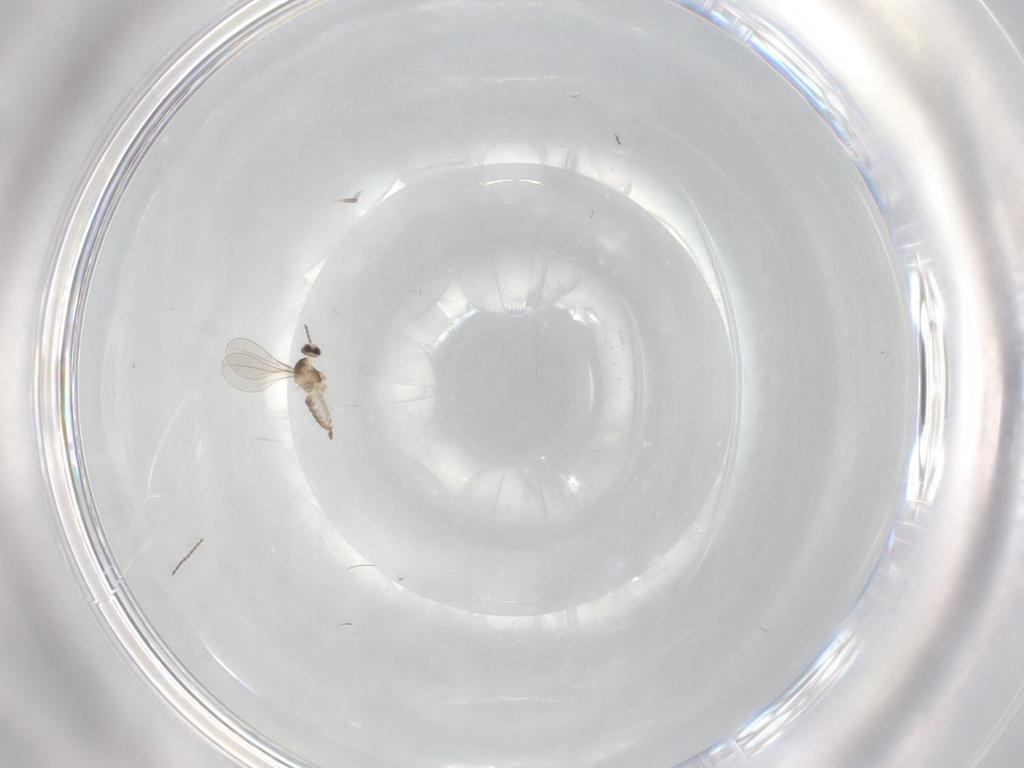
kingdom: Animalia
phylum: Arthropoda
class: Insecta
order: Diptera
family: Cecidomyiidae
